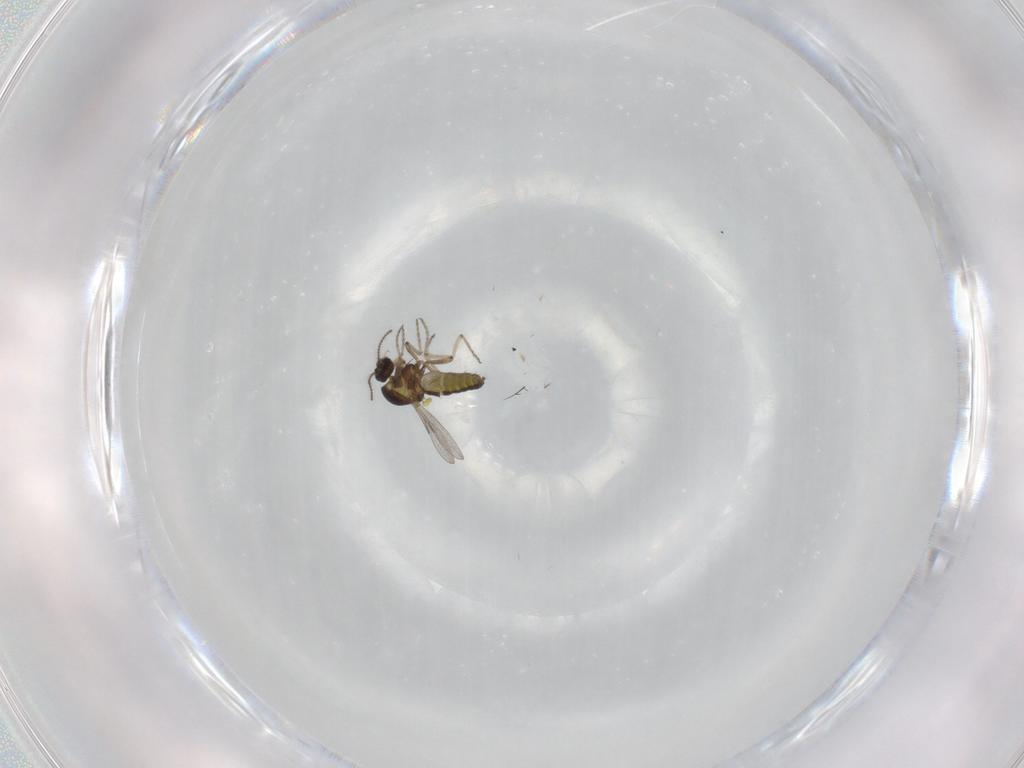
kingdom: Animalia
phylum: Arthropoda
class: Insecta
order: Diptera
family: Ceratopogonidae
